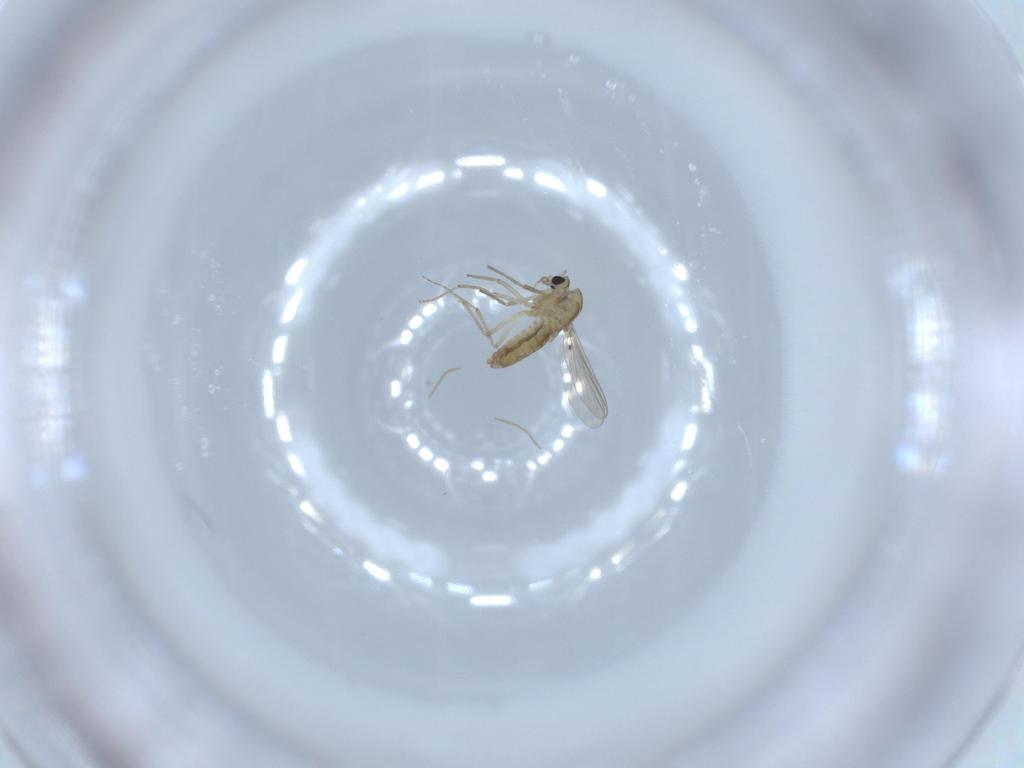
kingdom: Animalia
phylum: Arthropoda
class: Insecta
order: Diptera
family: Chironomidae
